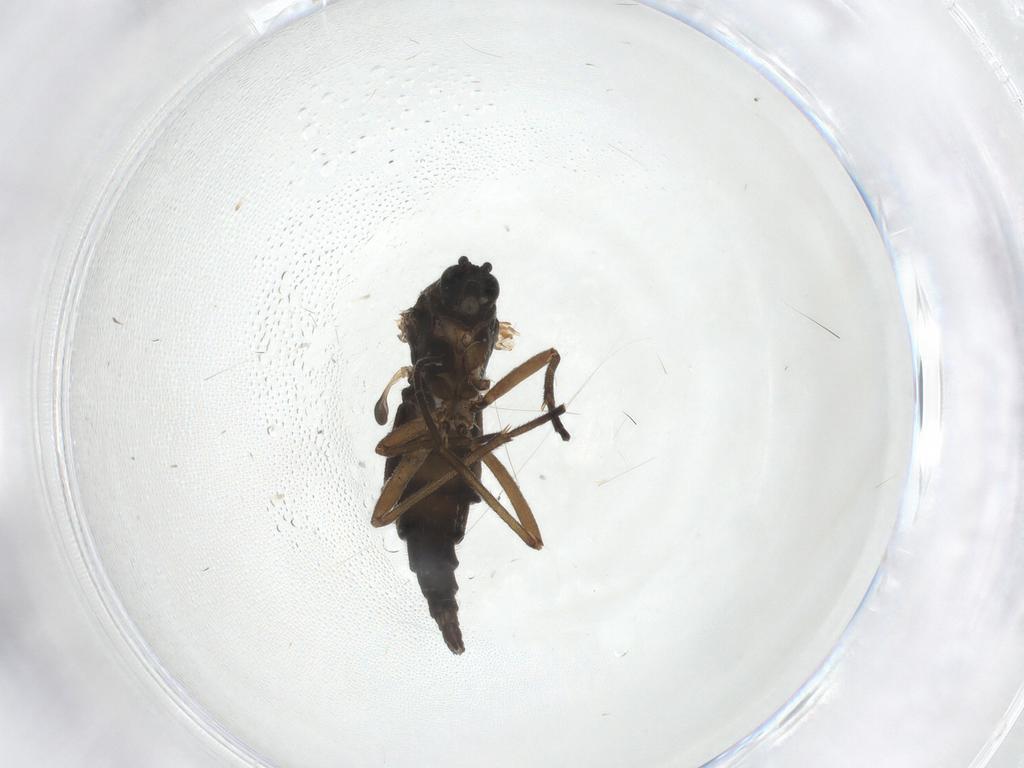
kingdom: Animalia
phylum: Arthropoda
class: Insecta
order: Diptera
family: Sciaridae
